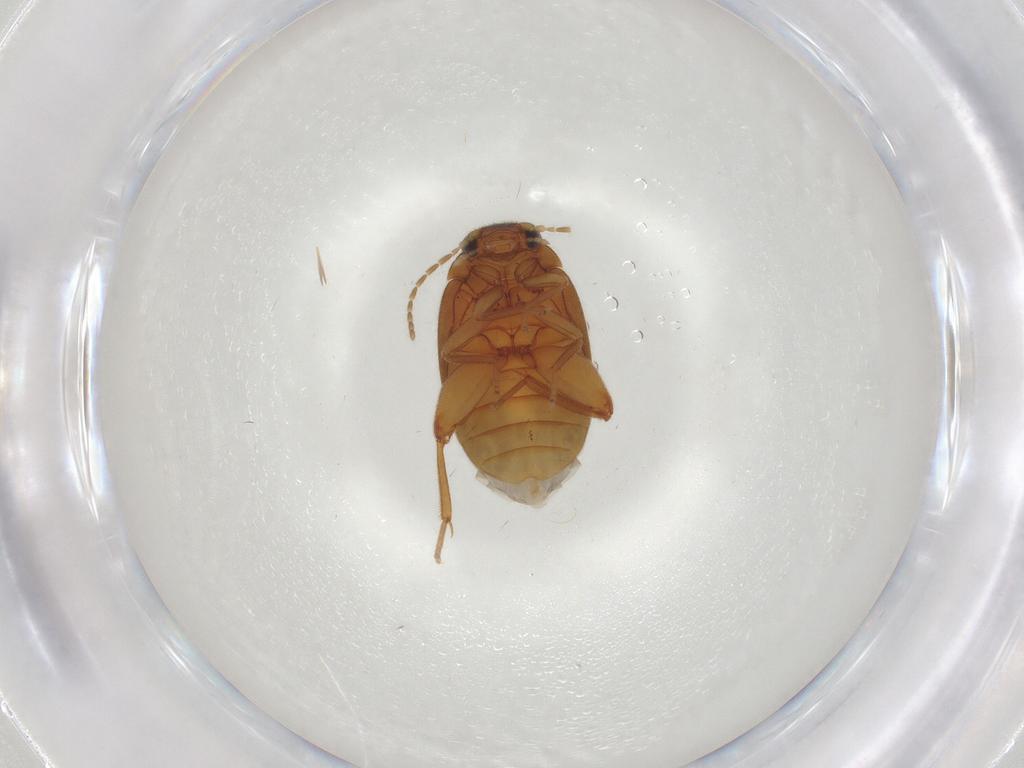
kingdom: Animalia
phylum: Arthropoda
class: Insecta
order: Coleoptera
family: Scirtidae
